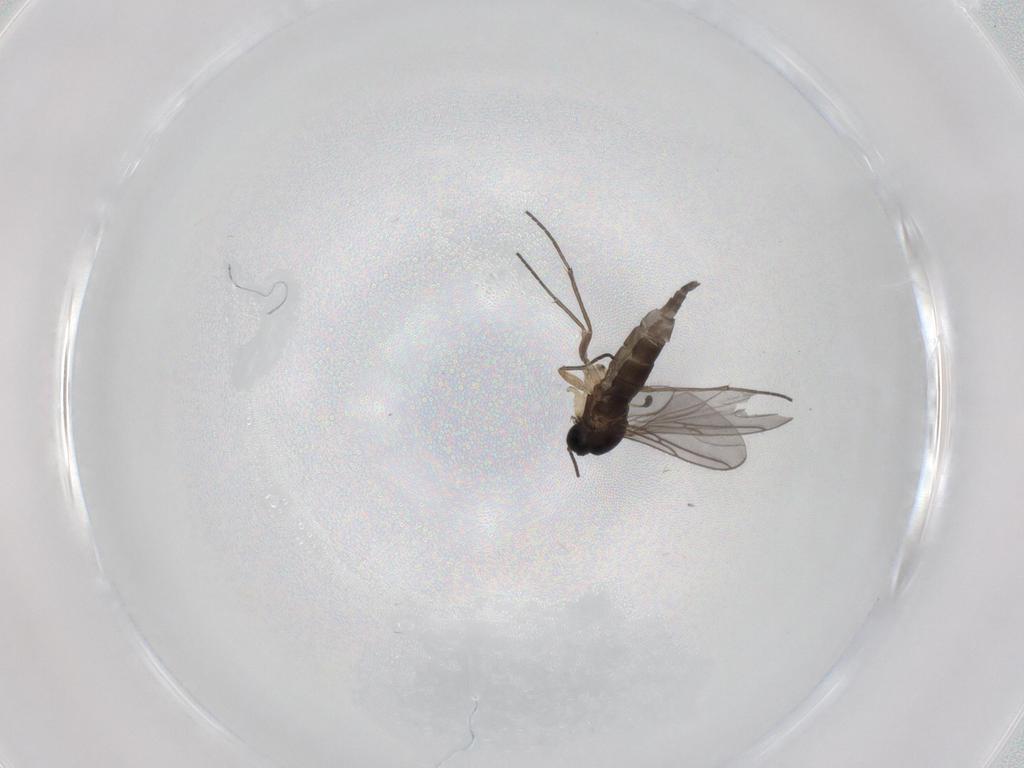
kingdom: Animalia
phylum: Arthropoda
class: Insecta
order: Diptera
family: Sciaridae
